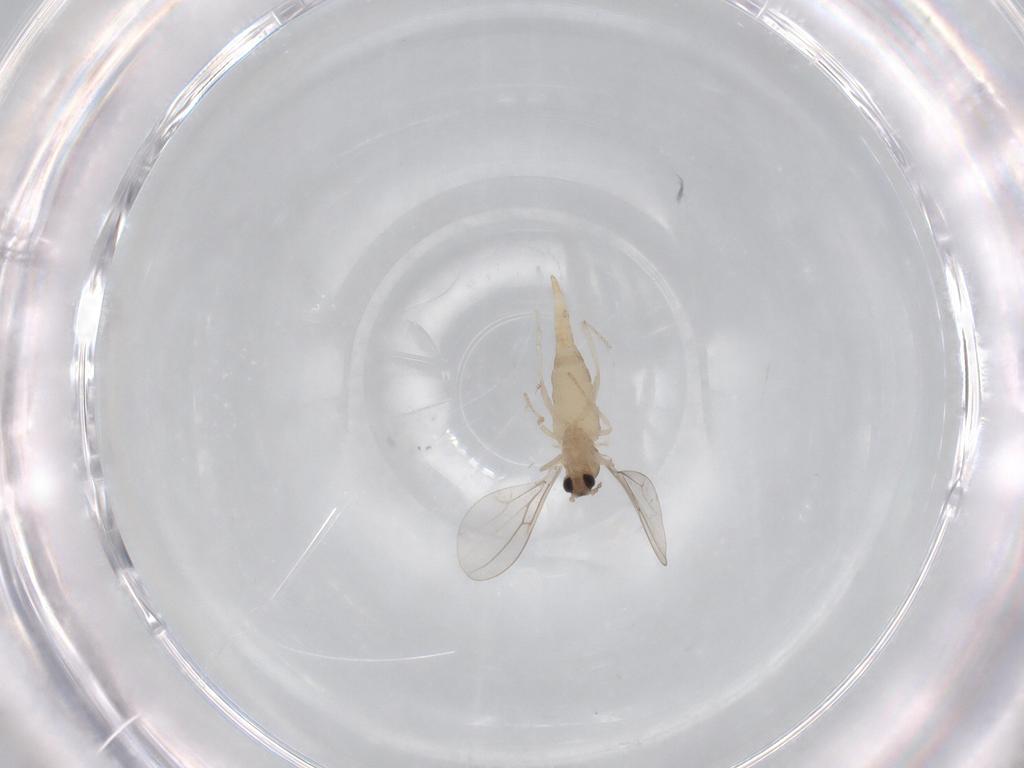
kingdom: Animalia
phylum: Arthropoda
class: Insecta
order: Diptera
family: Cecidomyiidae
